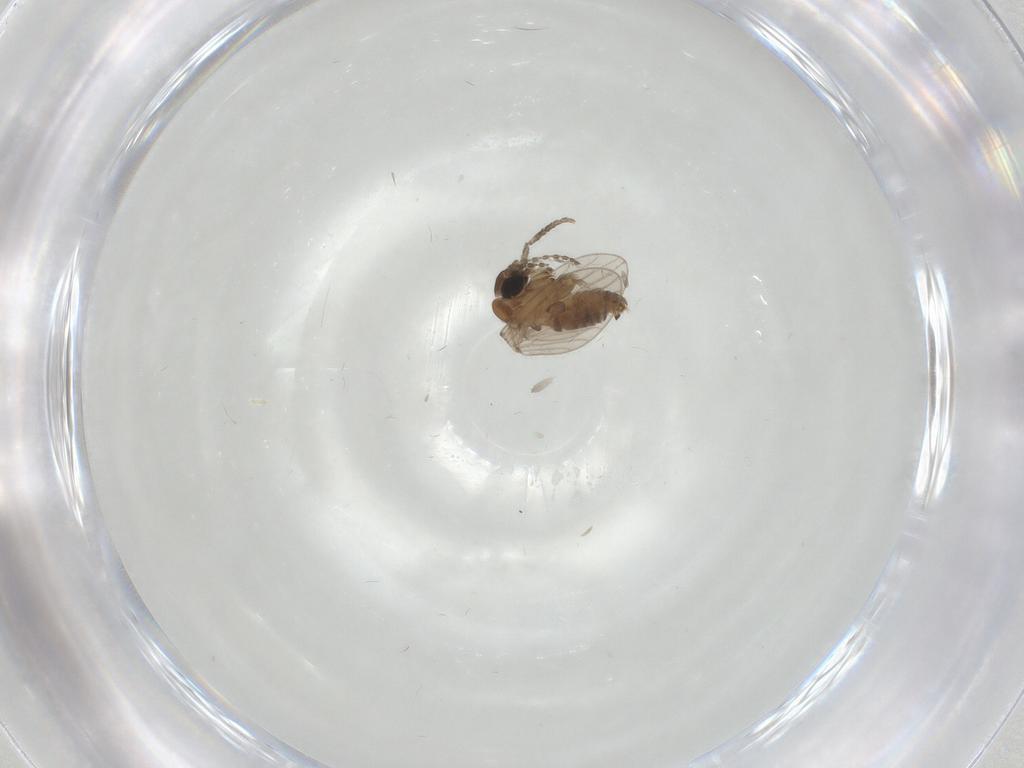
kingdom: Animalia
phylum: Arthropoda
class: Insecta
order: Diptera
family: Psychodidae
